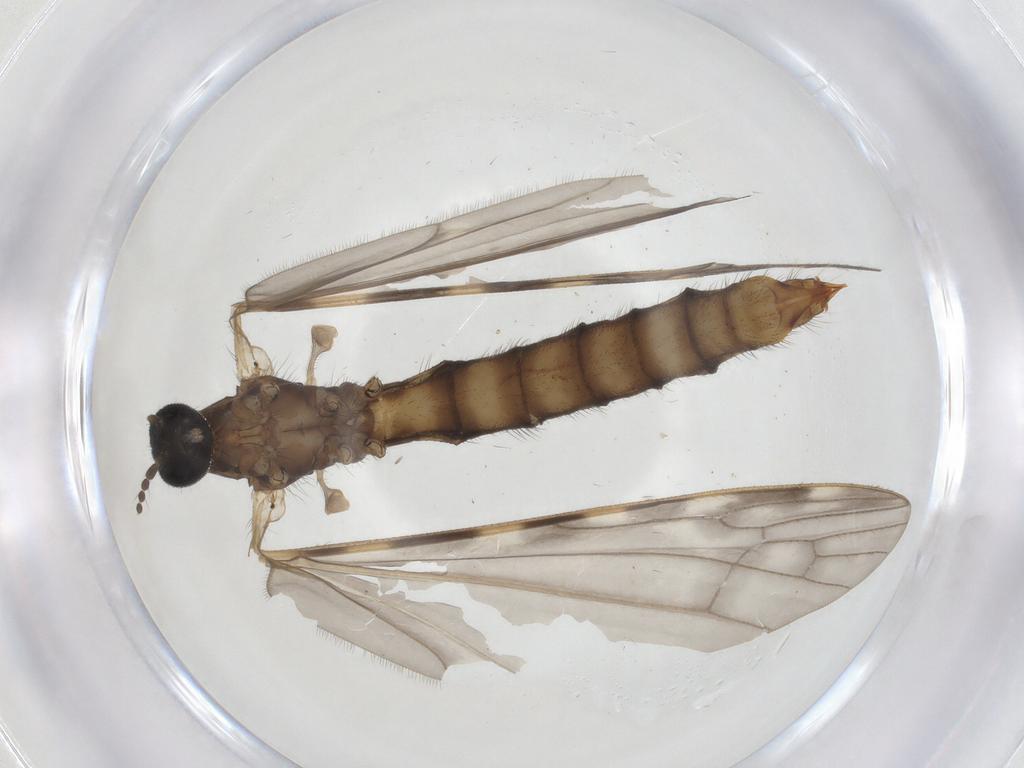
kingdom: Animalia
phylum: Arthropoda
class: Insecta
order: Diptera
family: Limoniidae
